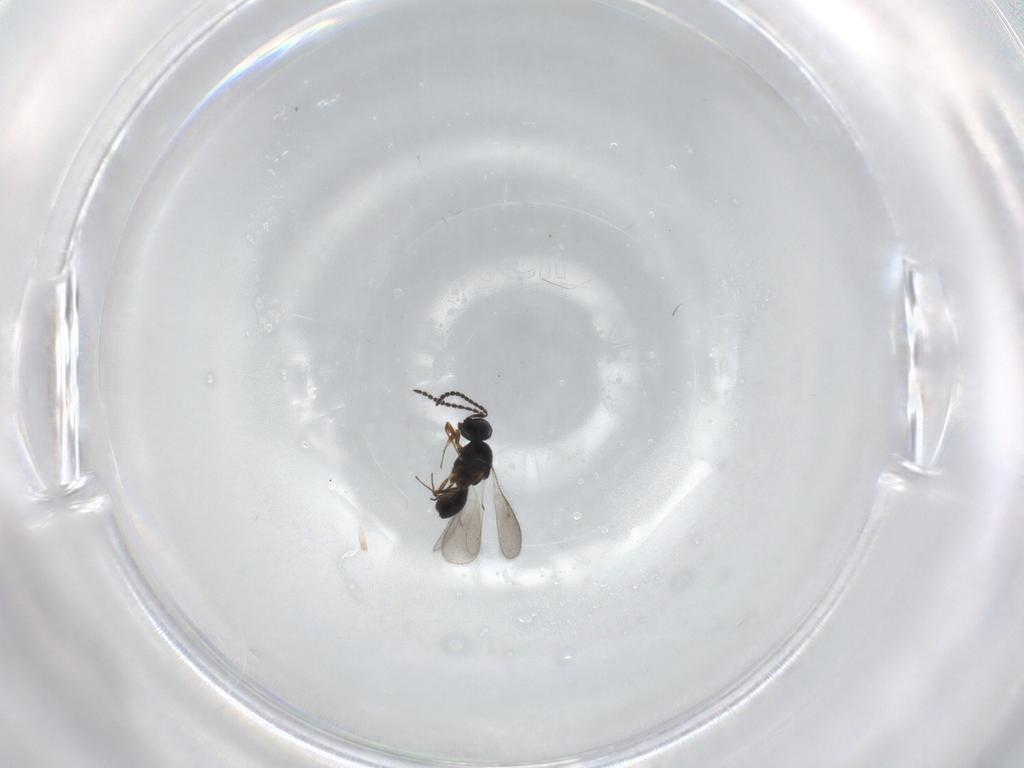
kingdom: Animalia
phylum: Arthropoda
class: Insecta
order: Hymenoptera
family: Scelionidae
